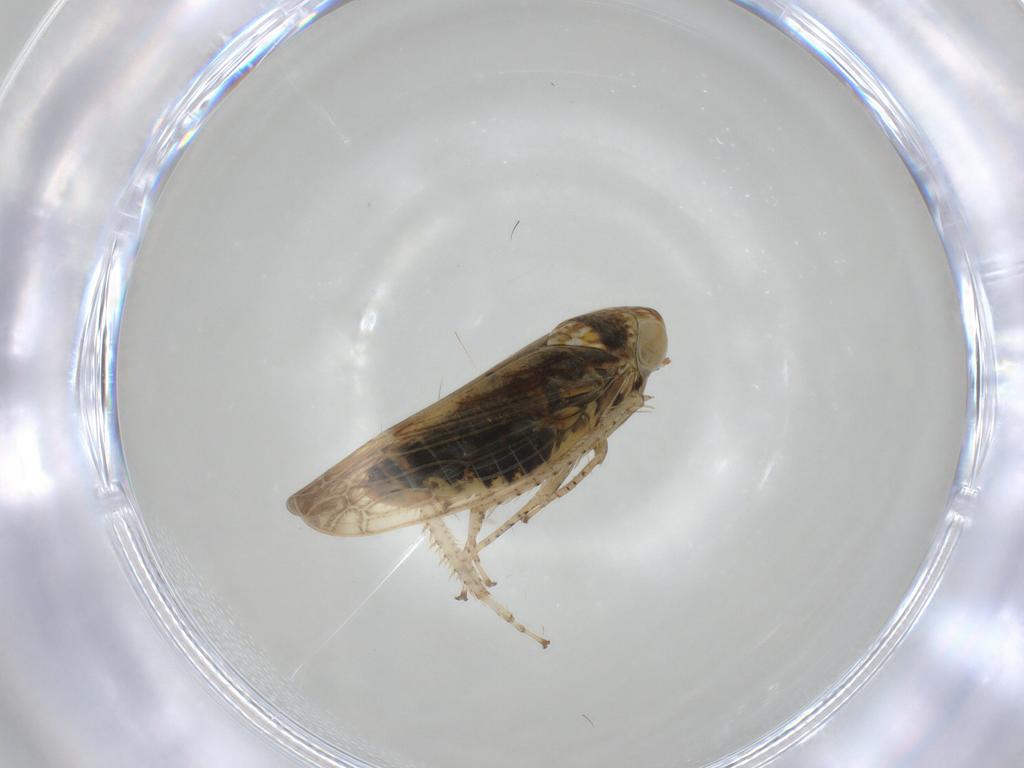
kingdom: Animalia
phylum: Arthropoda
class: Insecta
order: Hemiptera
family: Cicadellidae
